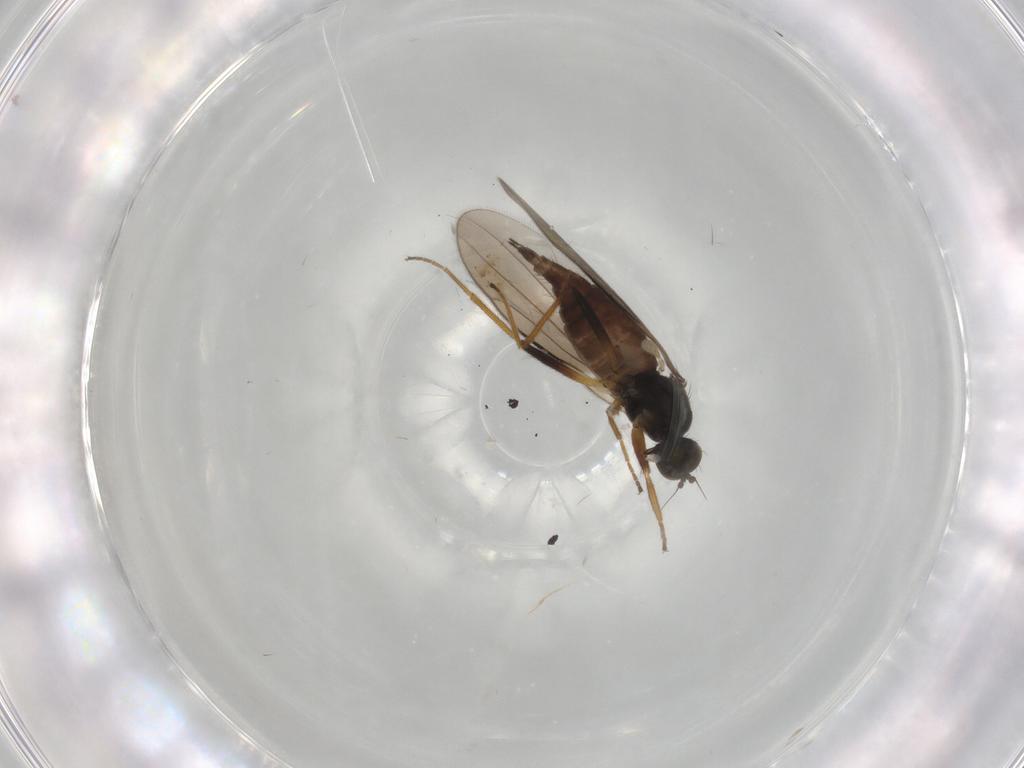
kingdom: Animalia
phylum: Arthropoda
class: Insecta
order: Diptera
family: Hybotidae
